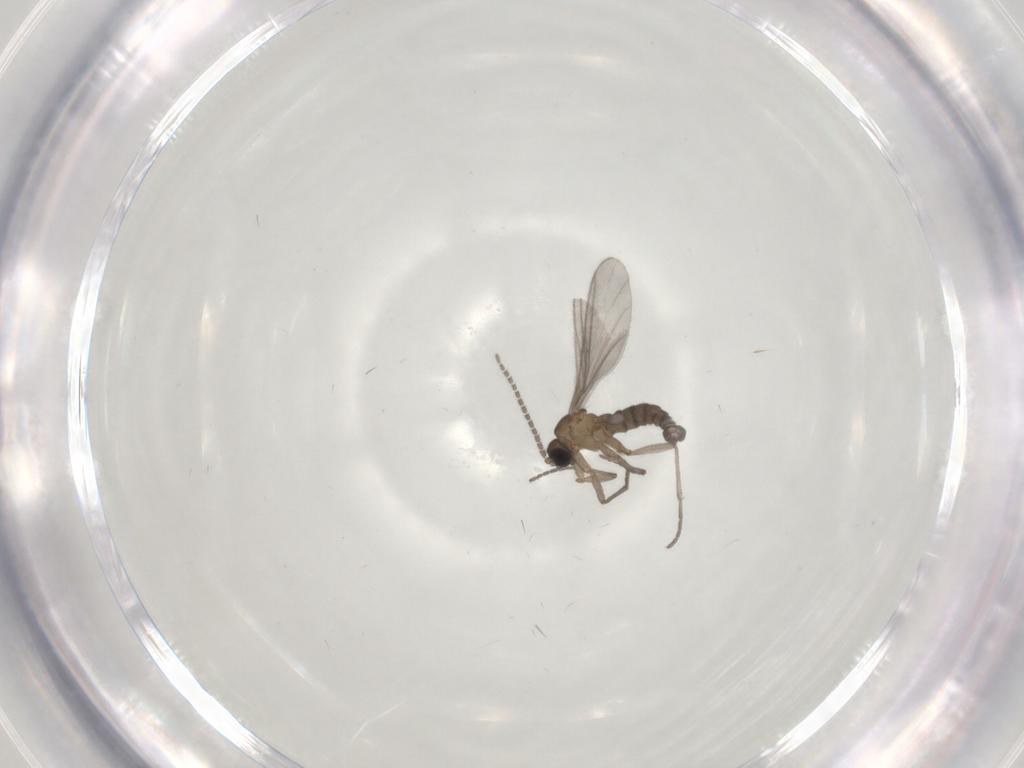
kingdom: Animalia
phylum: Arthropoda
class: Insecta
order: Diptera
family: Sciaridae
